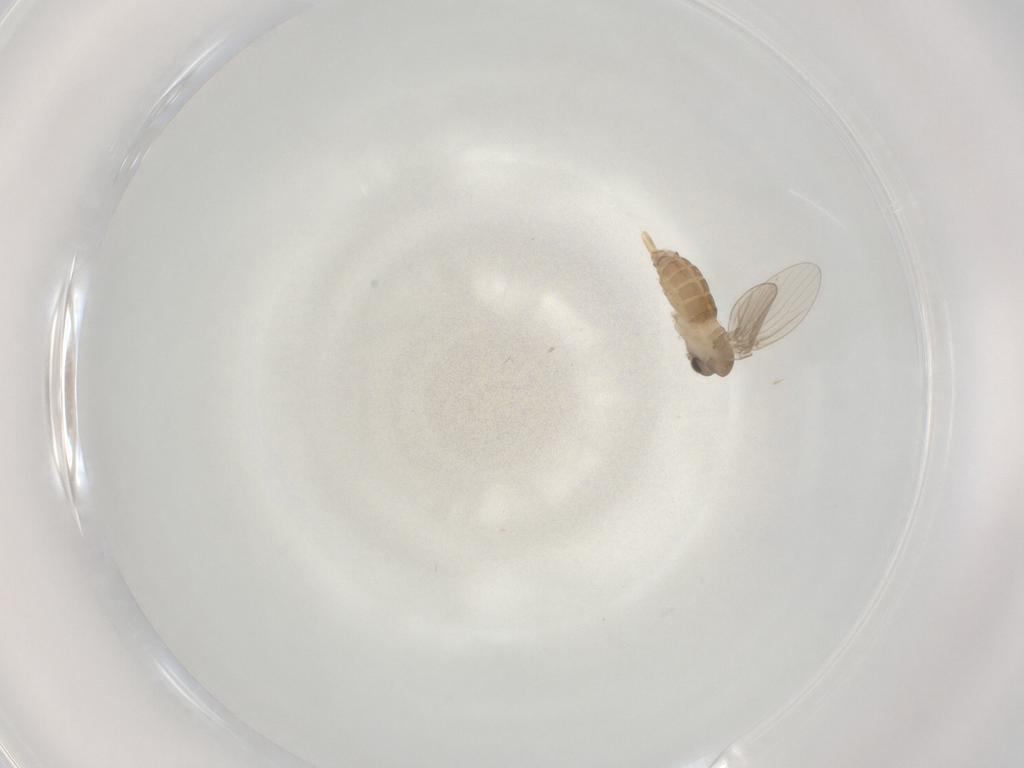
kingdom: Animalia
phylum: Arthropoda
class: Insecta
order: Diptera
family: Psychodidae
